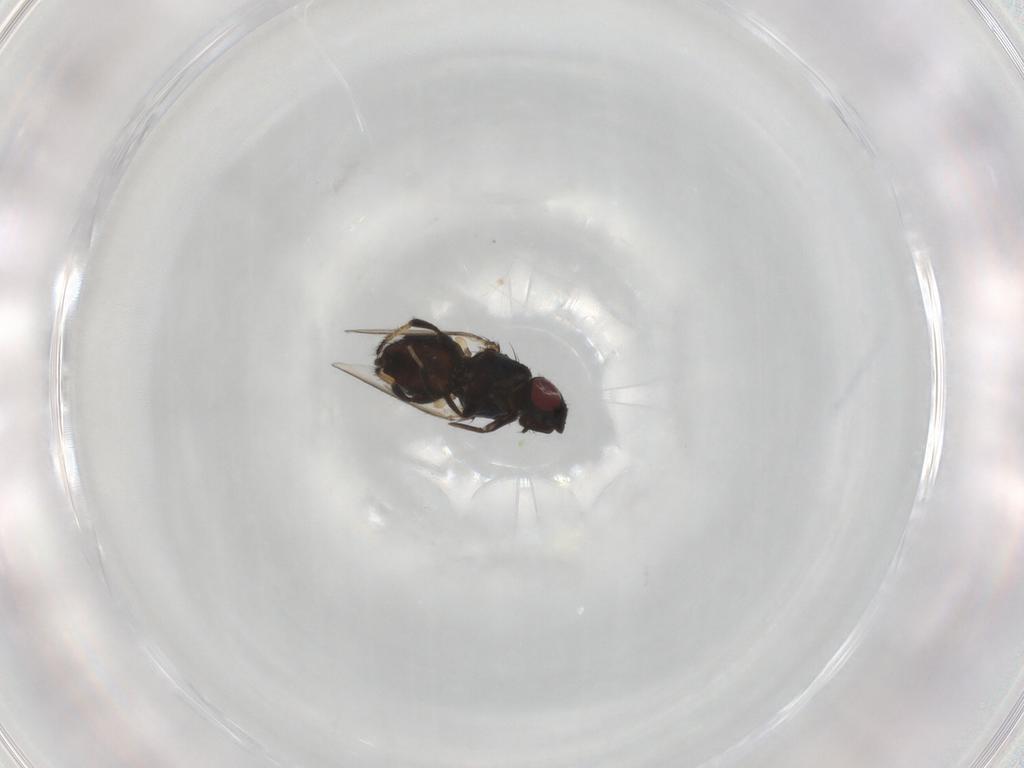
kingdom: Animalia
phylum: Arthropoda
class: Insecta
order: Diptera
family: Milichiidae
